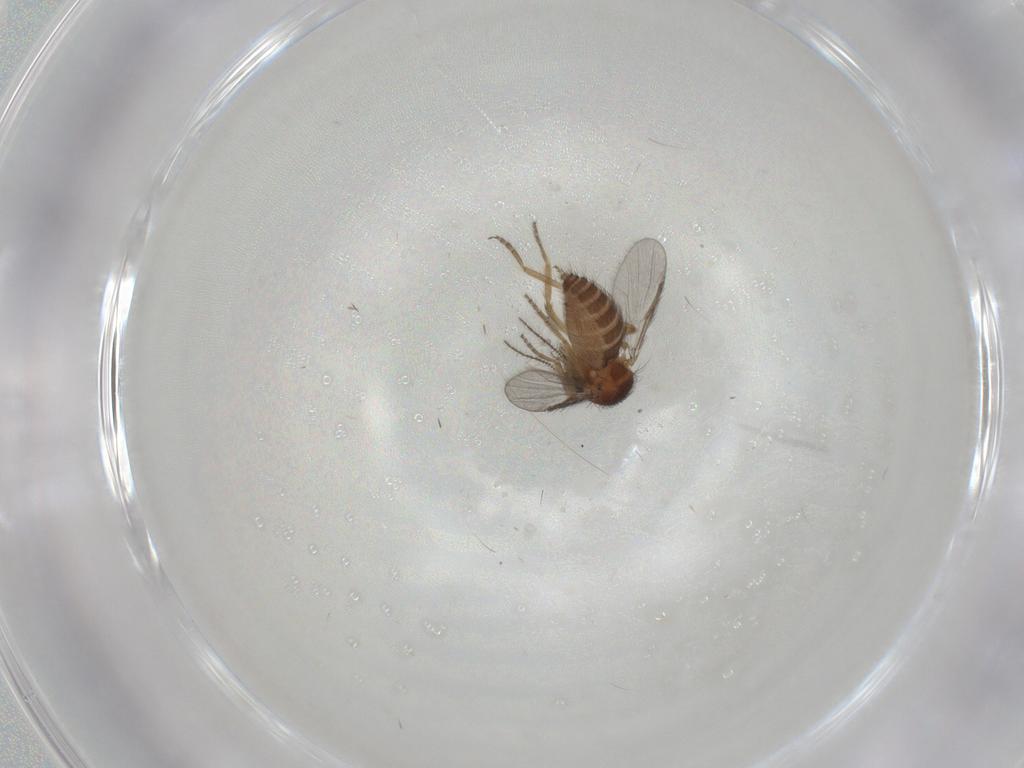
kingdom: Animalia
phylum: Arthropoda
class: Insecta
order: Diptera
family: Ceratopogonidae
